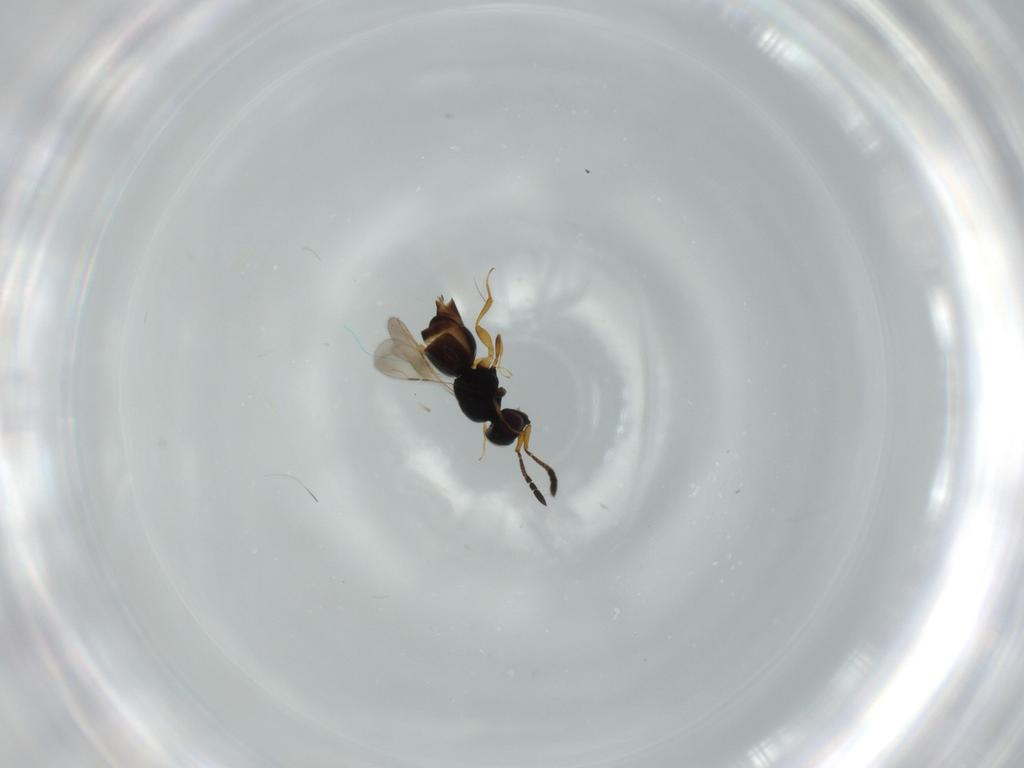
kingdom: Animalia
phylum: Arthropoda
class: Insecta
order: Hymenoptera
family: Ceraphronidae
